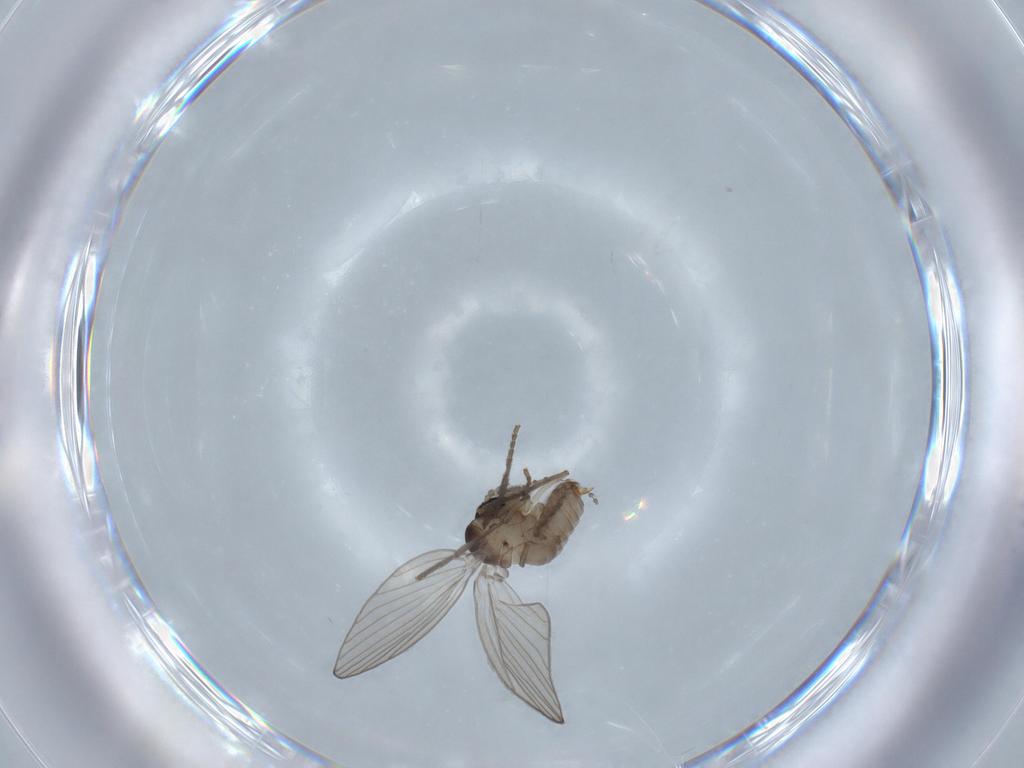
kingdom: Animalia
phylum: Arthropoda
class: Insecta
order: Diptera
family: Psychodidae
